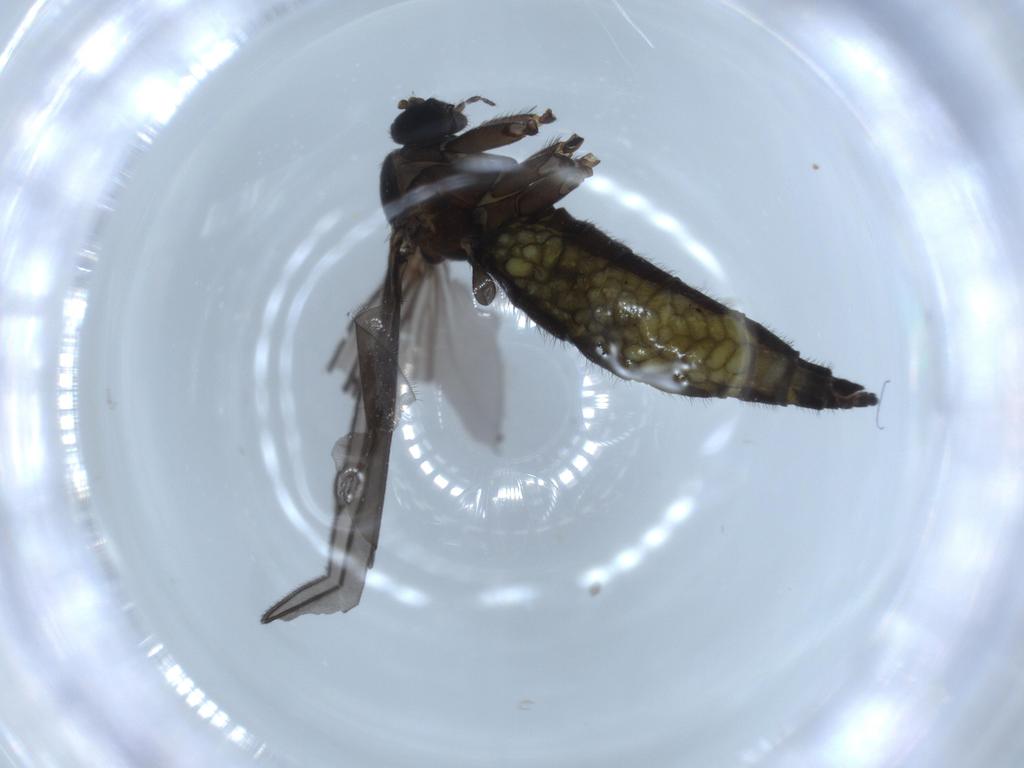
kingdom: Animalia
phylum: Arthropoda
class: Insecta
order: Diptera
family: Sciaridae
